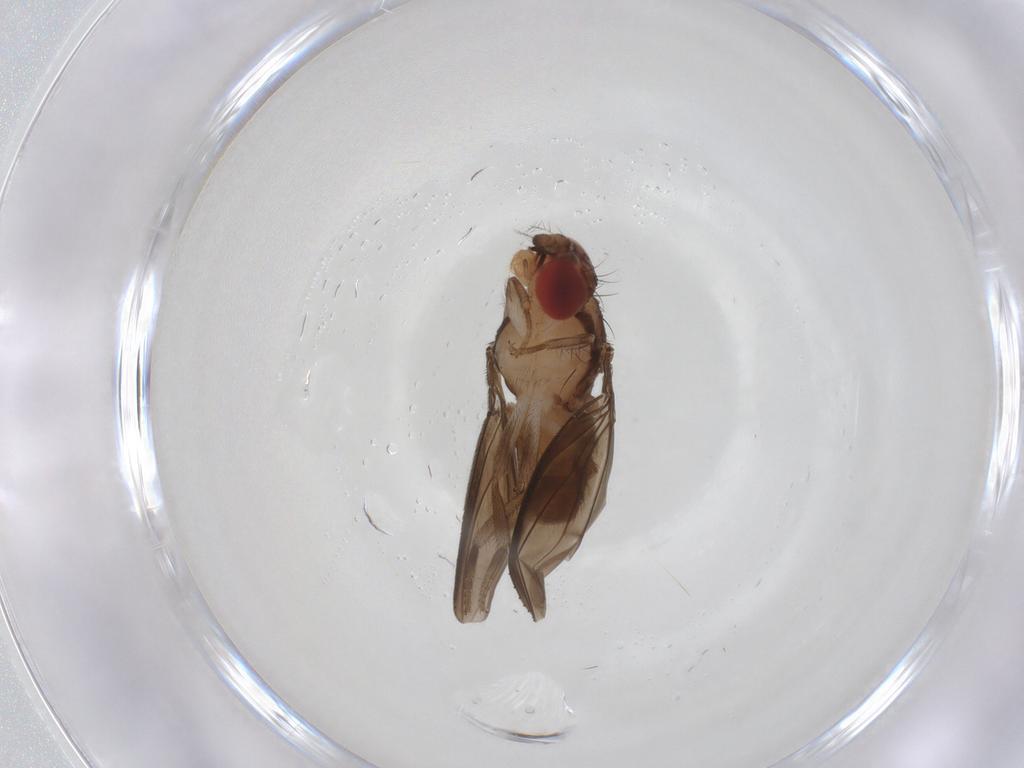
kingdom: Animalia
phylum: Arthropoda
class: Insecta
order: Diptera
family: Drosophilidae
